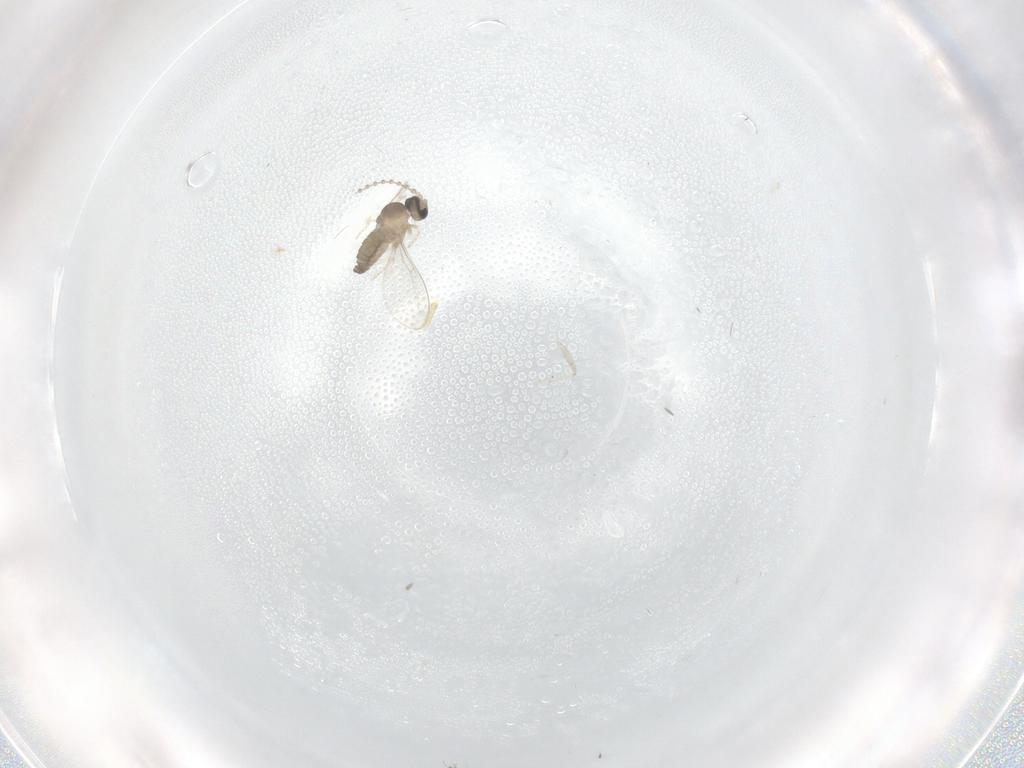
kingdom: Animalia
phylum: Arthropoda
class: Insecta
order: Diptera
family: Cecidomyiidae
